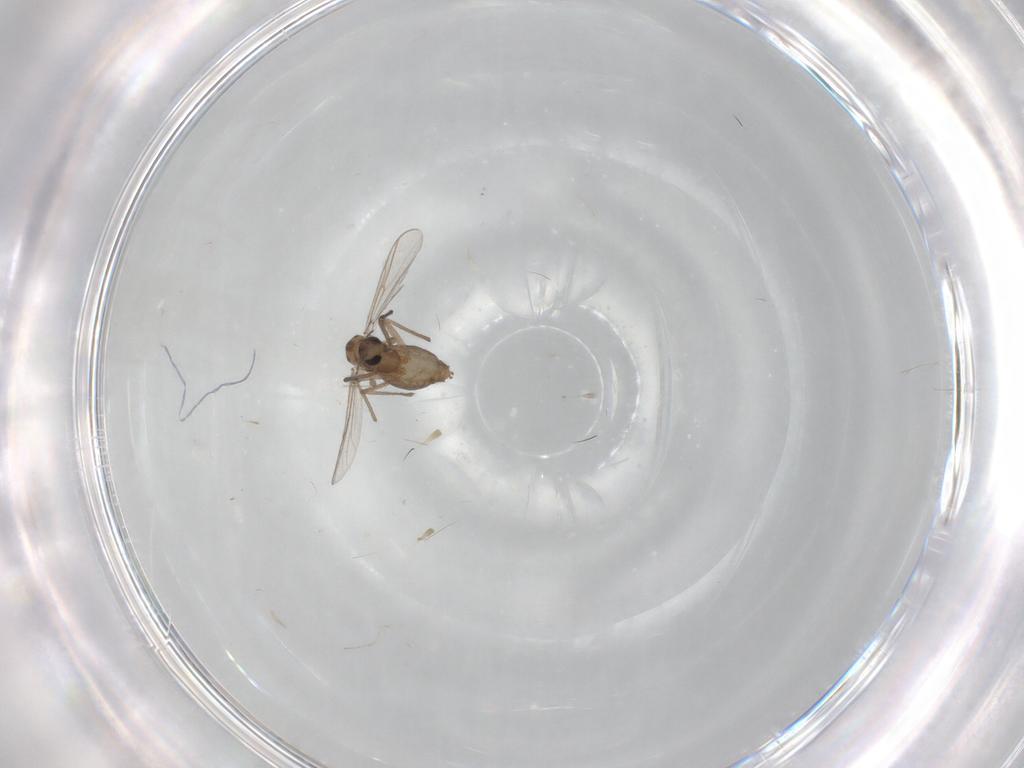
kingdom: Animalia
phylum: Arthropoda
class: Insecta
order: Diptera
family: Chironomidae
